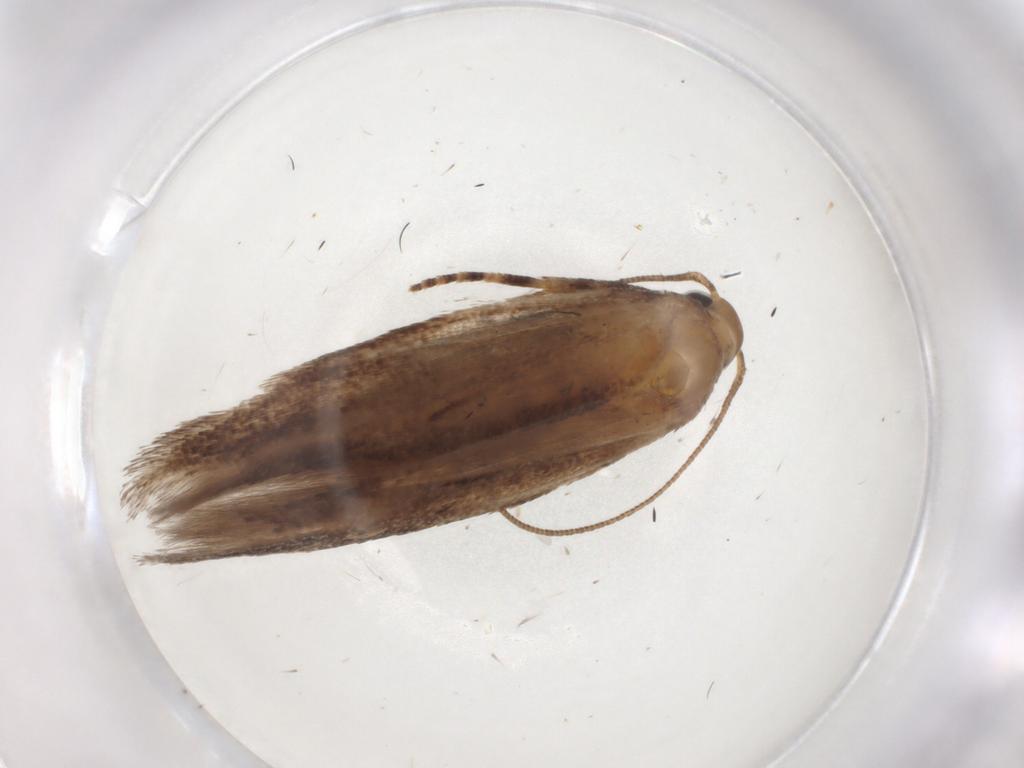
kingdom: Animalia
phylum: Arthropoda
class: Insecta
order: Lepidoptera
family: Gelechiidae
